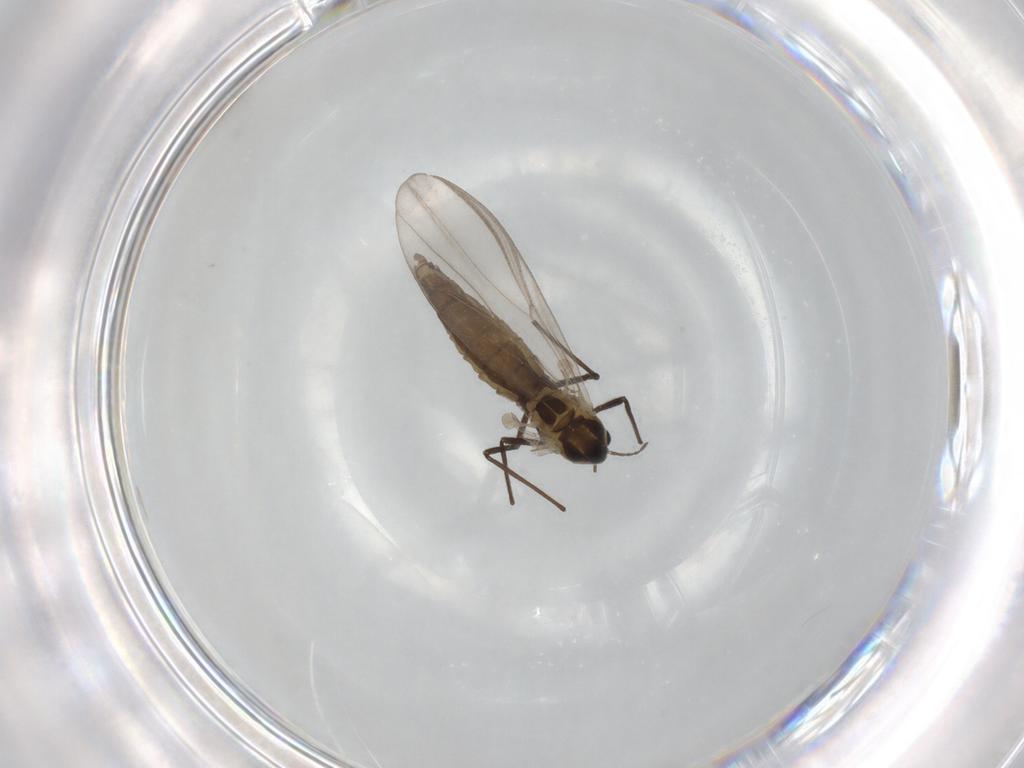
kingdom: Animalia
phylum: Arthropoda
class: Insecta
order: Diptera
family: Chironomidae
